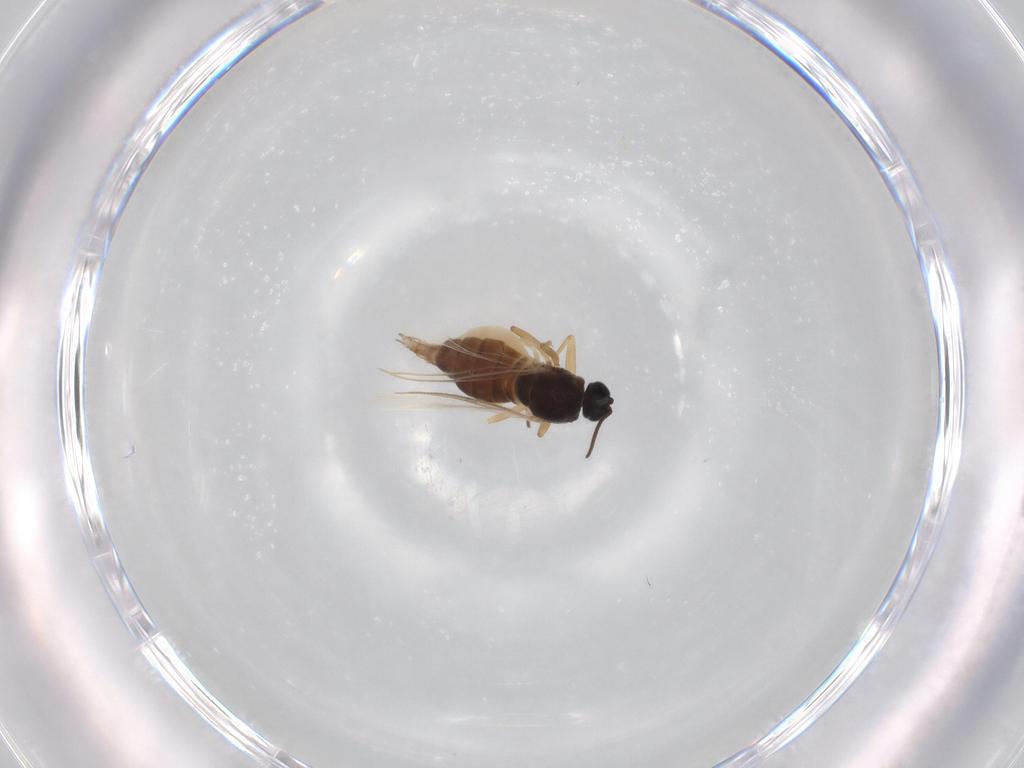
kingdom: Animalia
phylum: Arthropoda
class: Insecta
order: Diptera
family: Sciaridae
